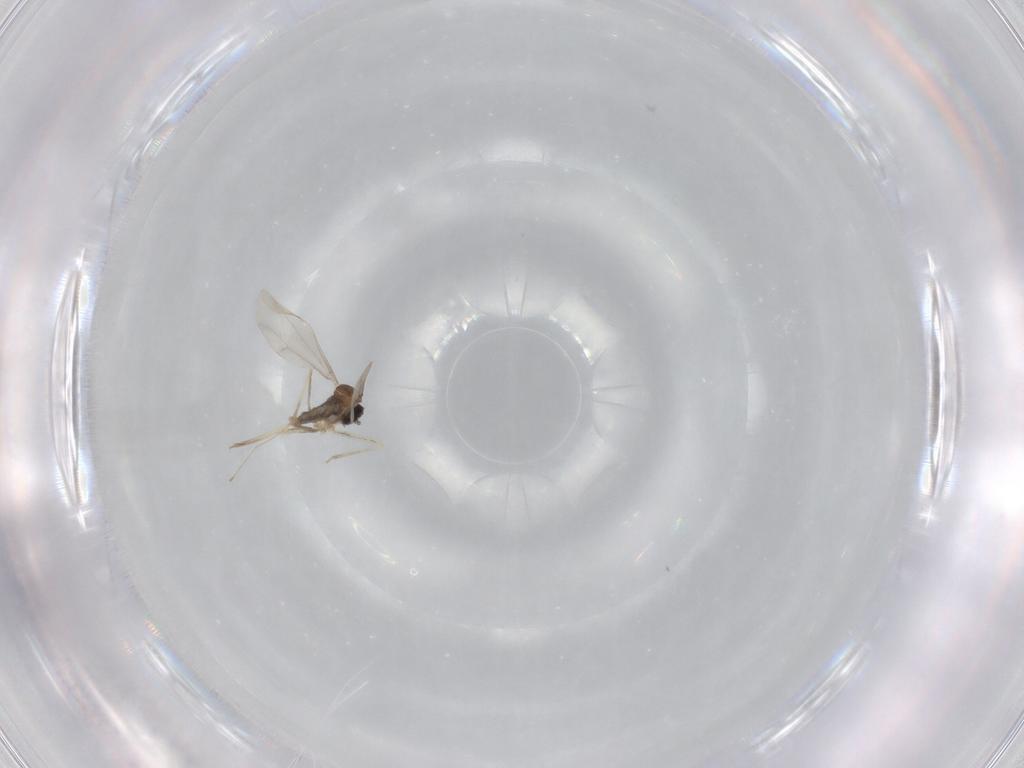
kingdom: Animalia
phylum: Arthropoda
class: Insecta
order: Diptera
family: Cecidomyiidae
